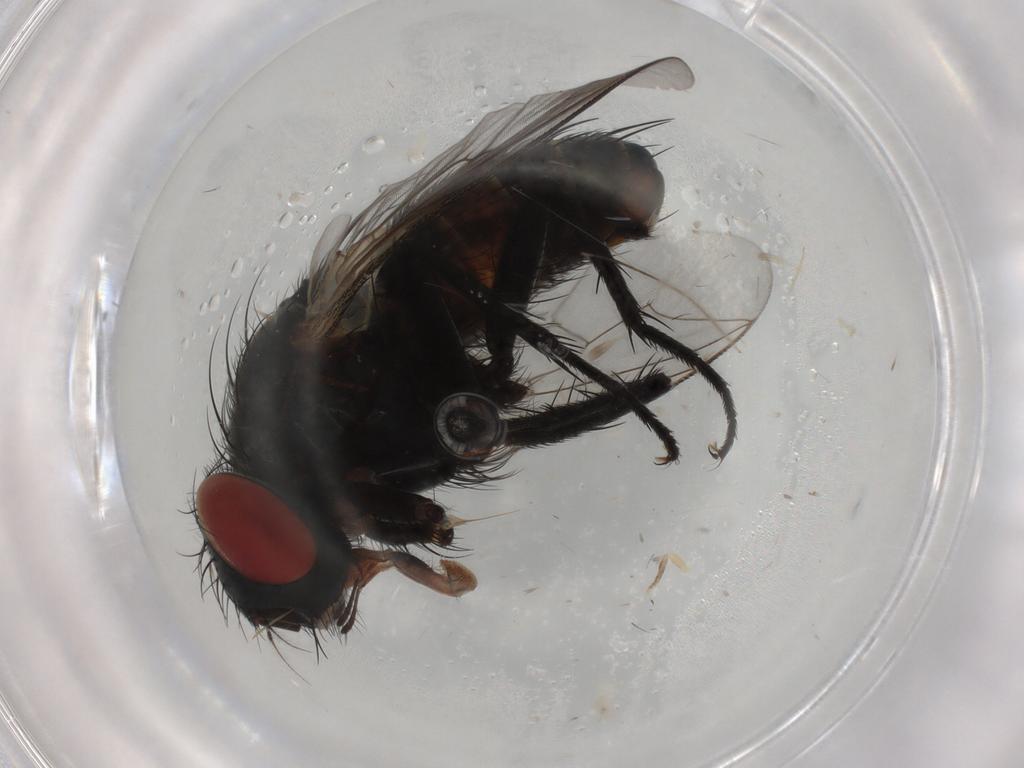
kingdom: Animalia
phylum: Arthropoda
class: Insecta
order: Diptera
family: Sarcophagidae
